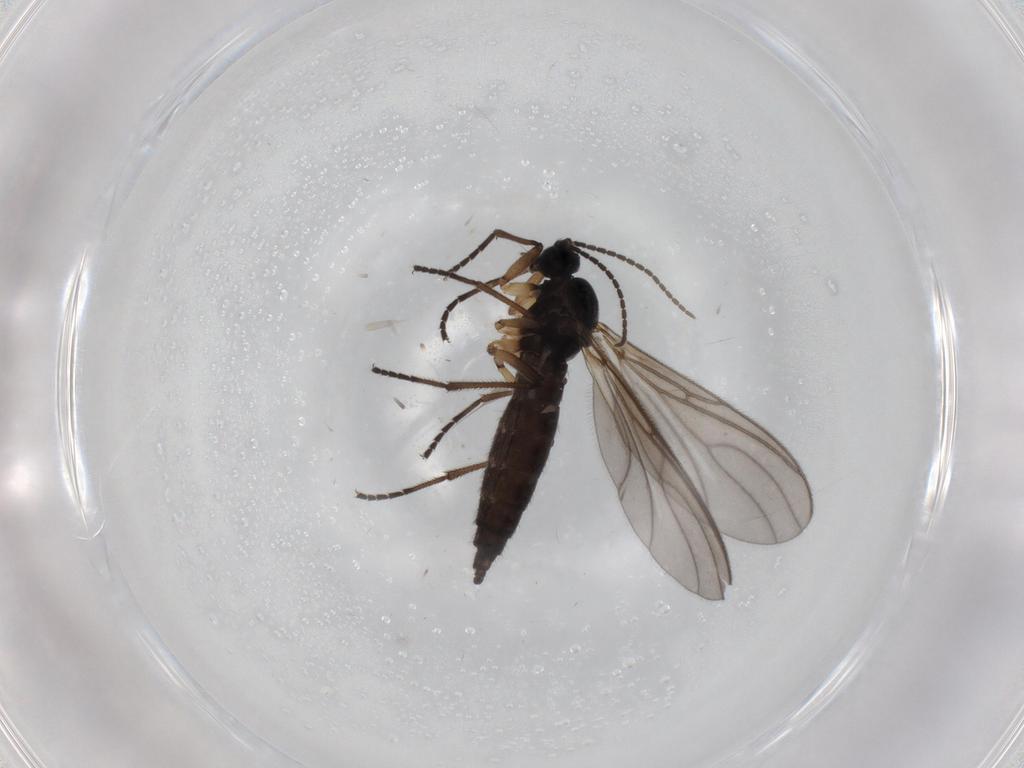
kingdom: Animalia
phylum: Arthropoda
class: Insecta
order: Diptera
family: Sciaridae
